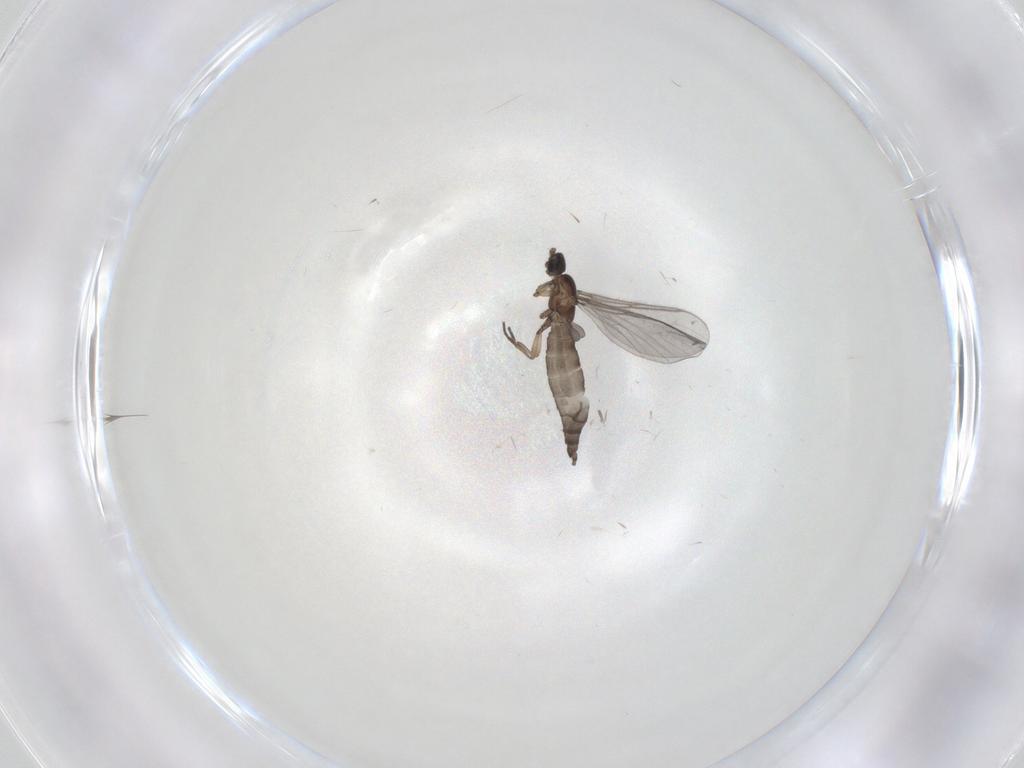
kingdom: Animalia
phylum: Arthropoda
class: Insecta
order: Diptera
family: Sciaridae
